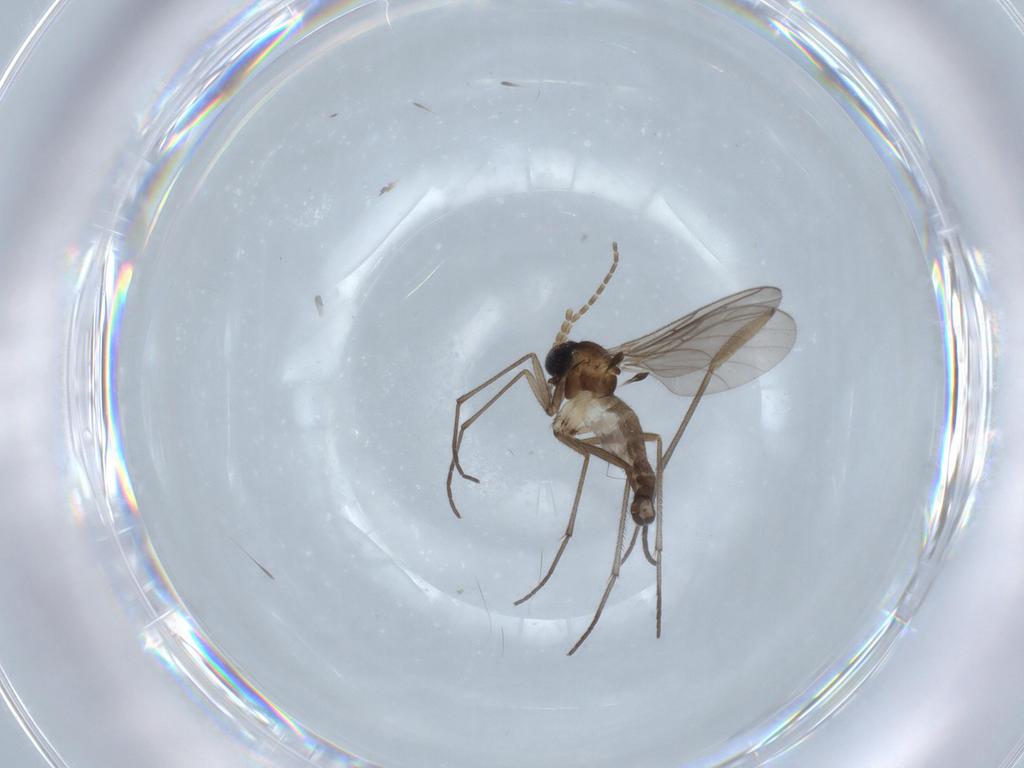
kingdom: Animalia
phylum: Arthropoda
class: Insecta
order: Diptera
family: Sciaridae
